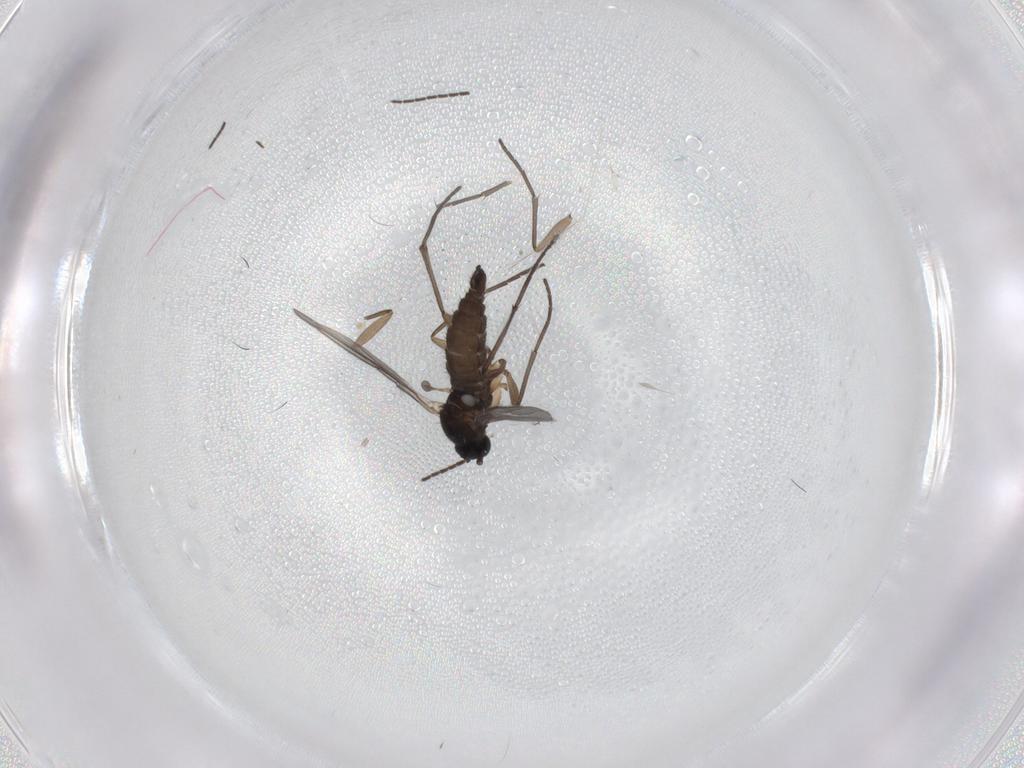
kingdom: Animalia
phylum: Arthropoda
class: Insecta
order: Diptera
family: Sciaridae
